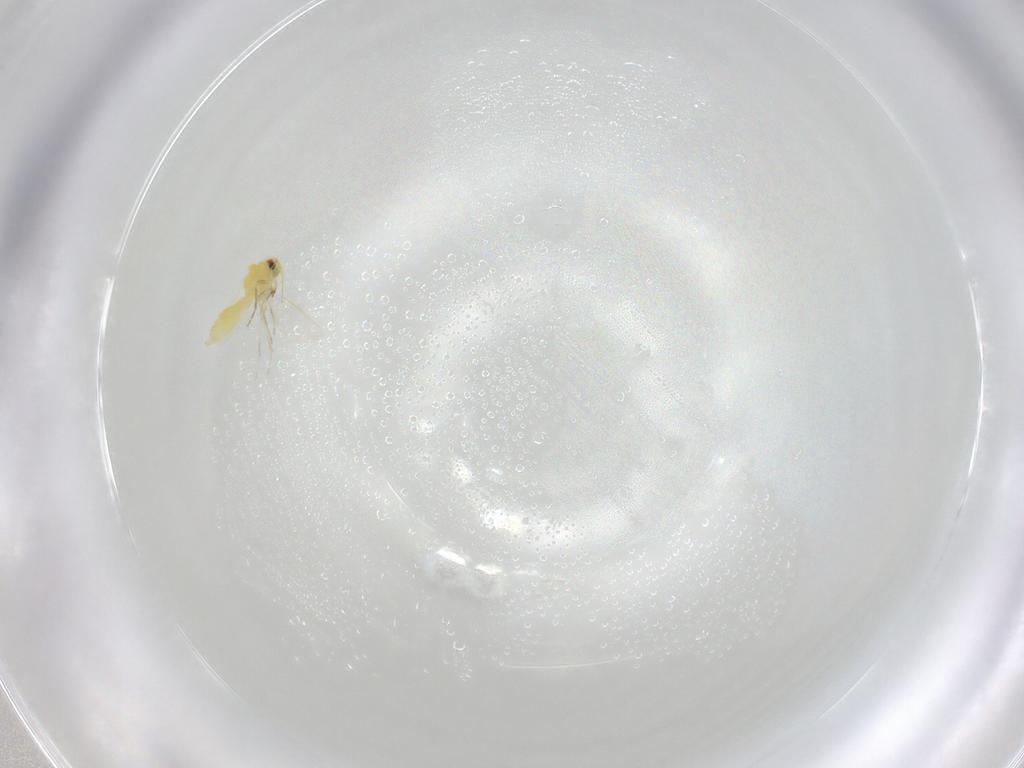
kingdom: Animalia
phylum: Arthropoda
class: Insecta
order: Hemiptera
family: Aleyrodidae
